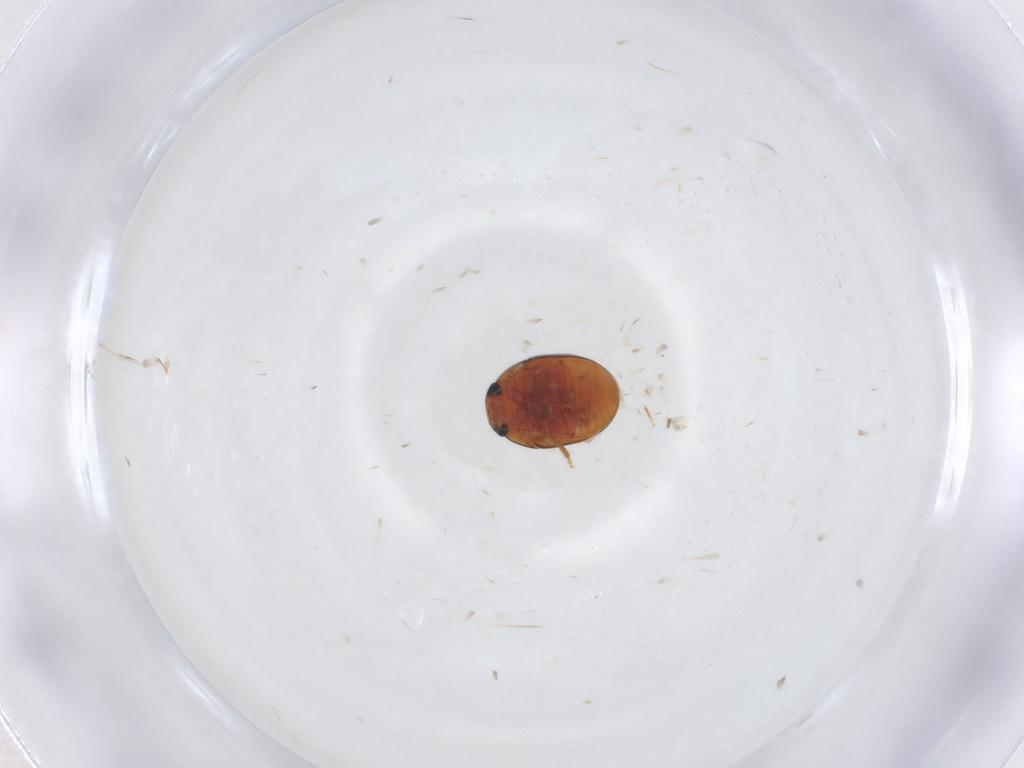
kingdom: Animalia
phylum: Arthropoda
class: Insecta
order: Coleoptera
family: Phalacridae
